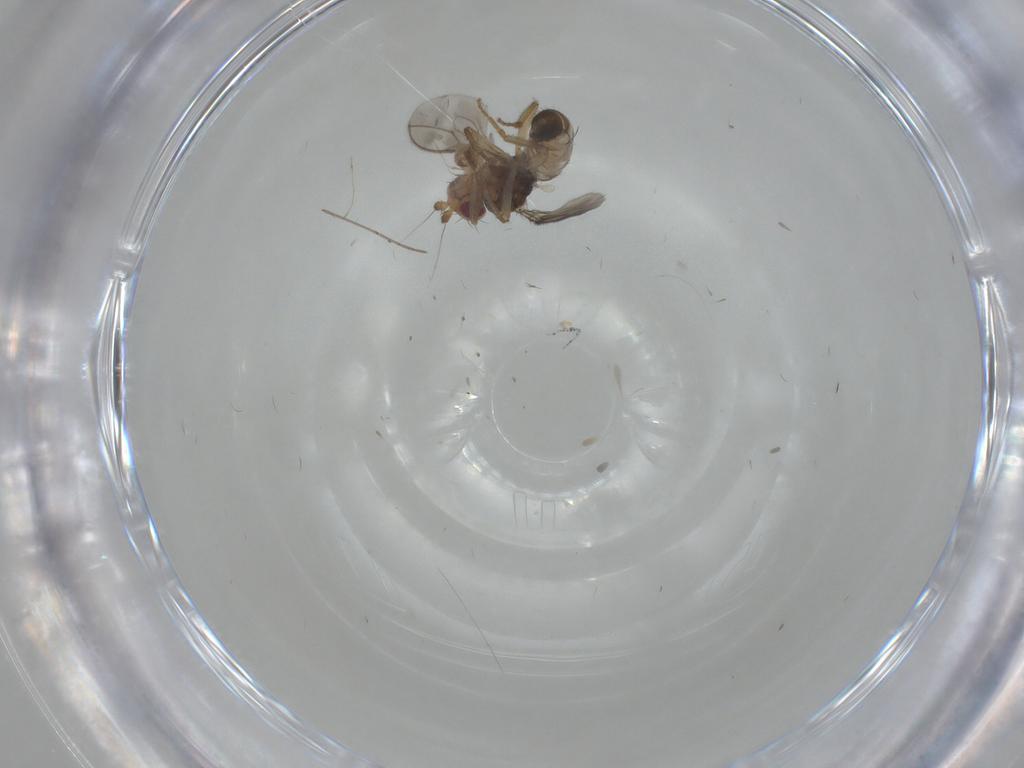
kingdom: Animalia
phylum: Arthropoda
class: Insecta
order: Diptera
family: Sphaeroceridae
